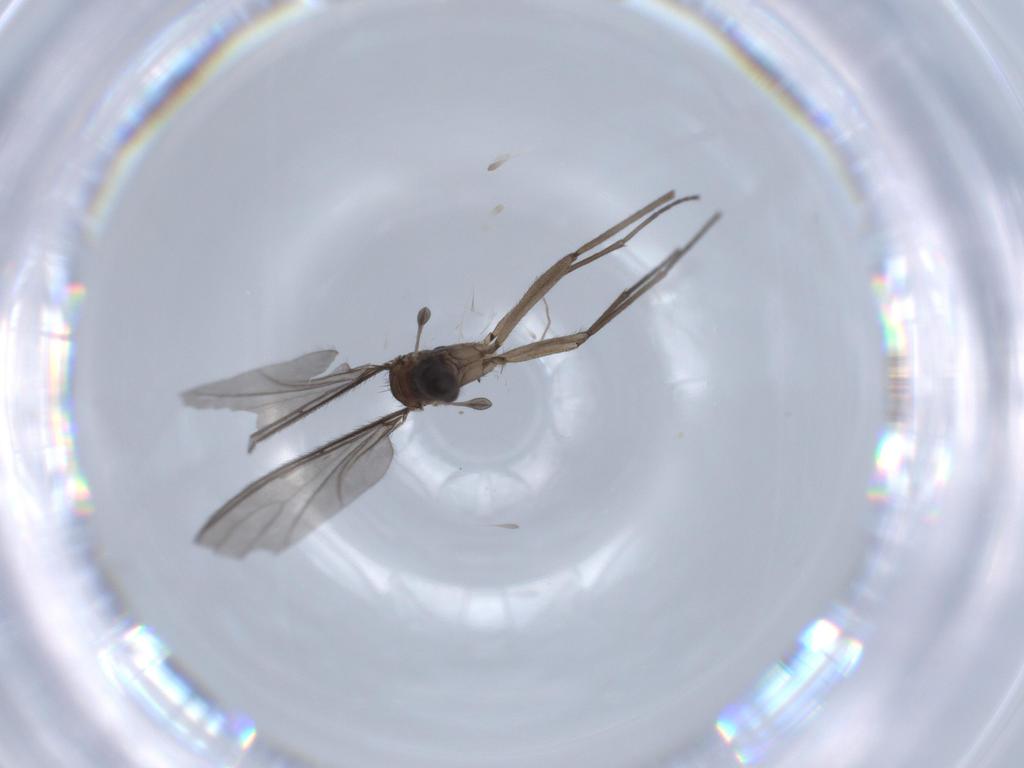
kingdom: Animalia
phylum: Arthropoda
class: Insecta
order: Diptera
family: Sciaridae
